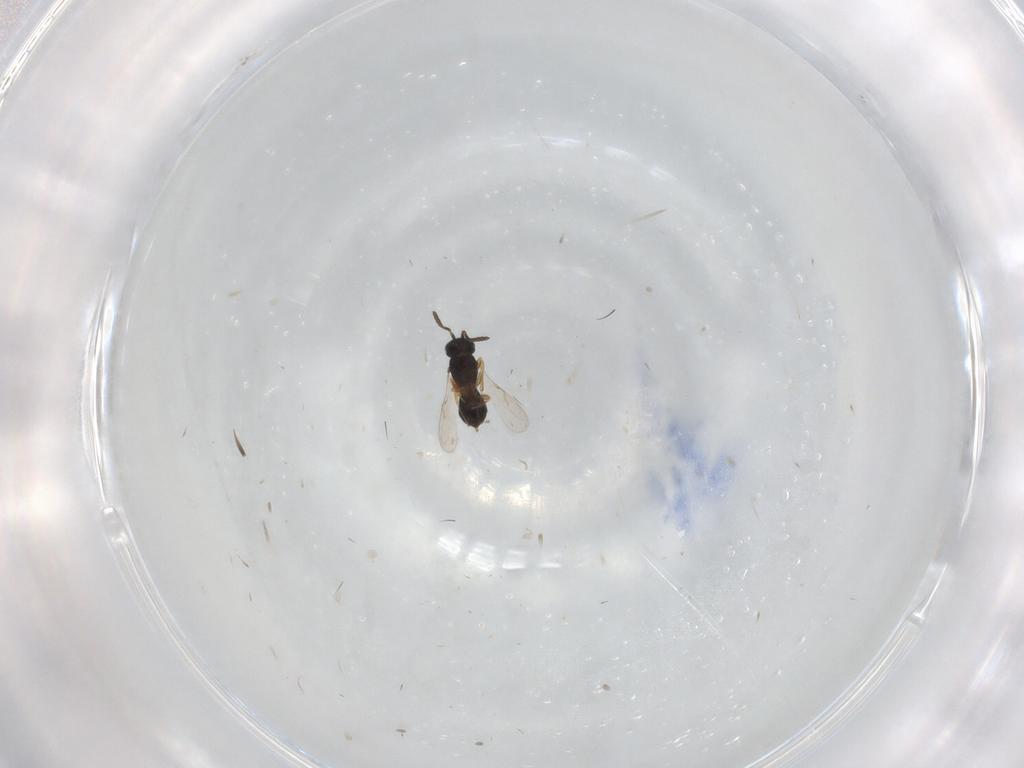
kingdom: Animalia
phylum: Arthropoda
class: Insecta
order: Hymenoptera
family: Scelionidae
